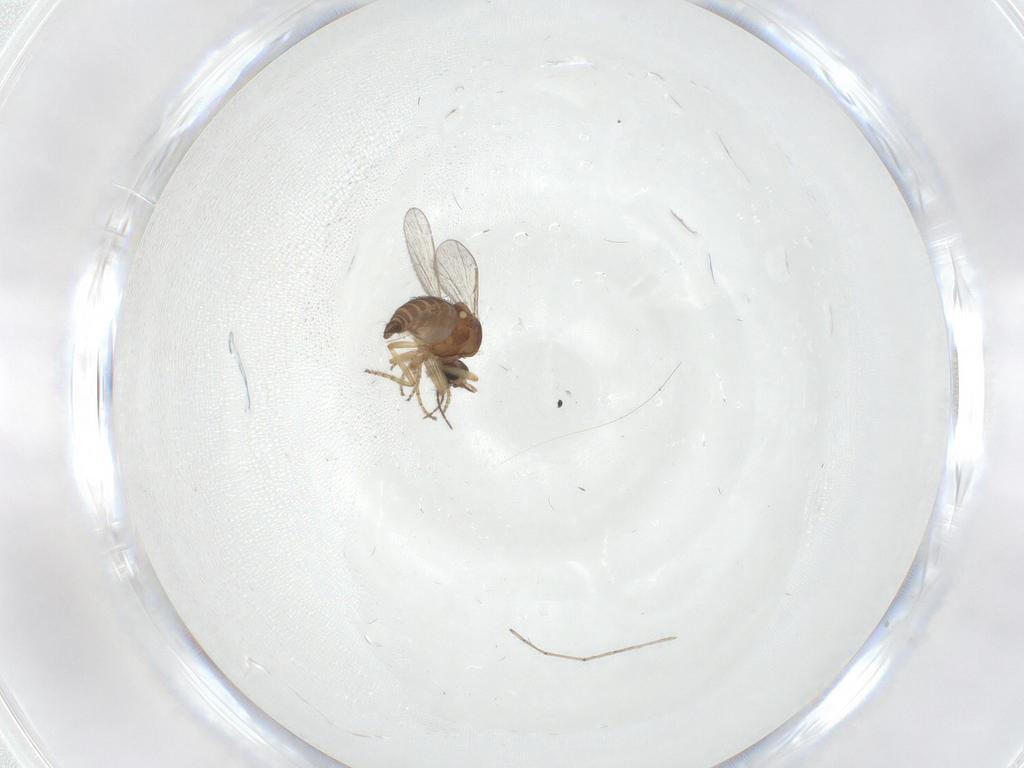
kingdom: Animalia
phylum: Arthropoda
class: Insecta
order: Diptera
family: Ceratopogonidae
